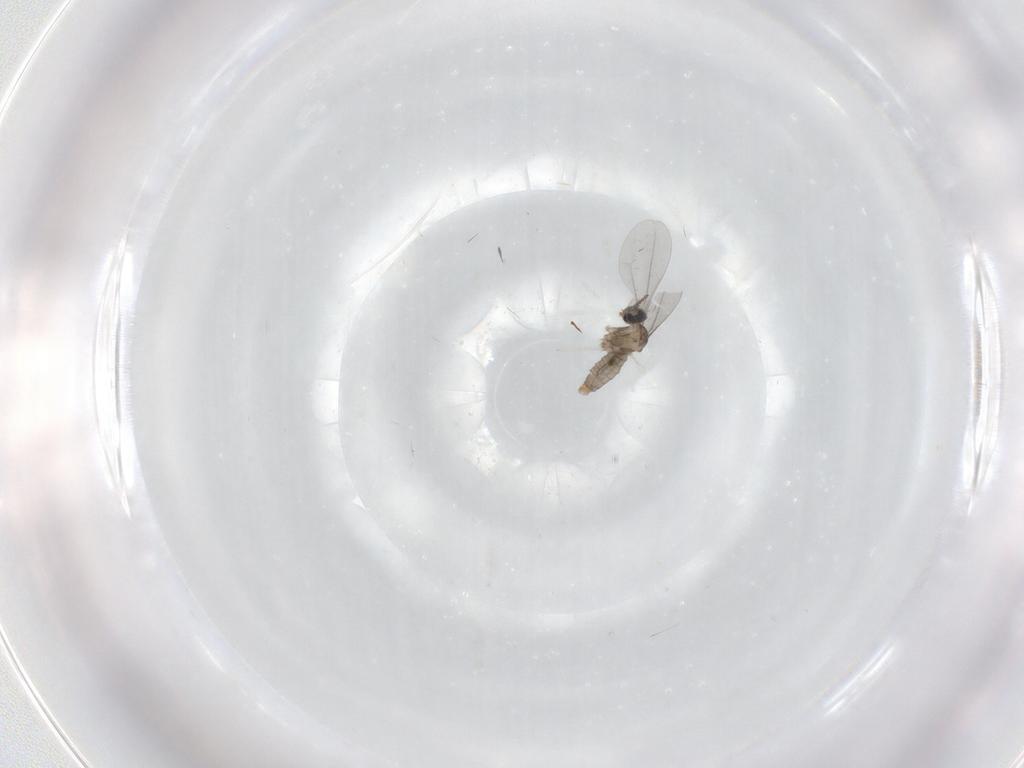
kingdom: Animalia
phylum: Arthropoda
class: Insecta
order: Diptera
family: Cecidomyiidae
